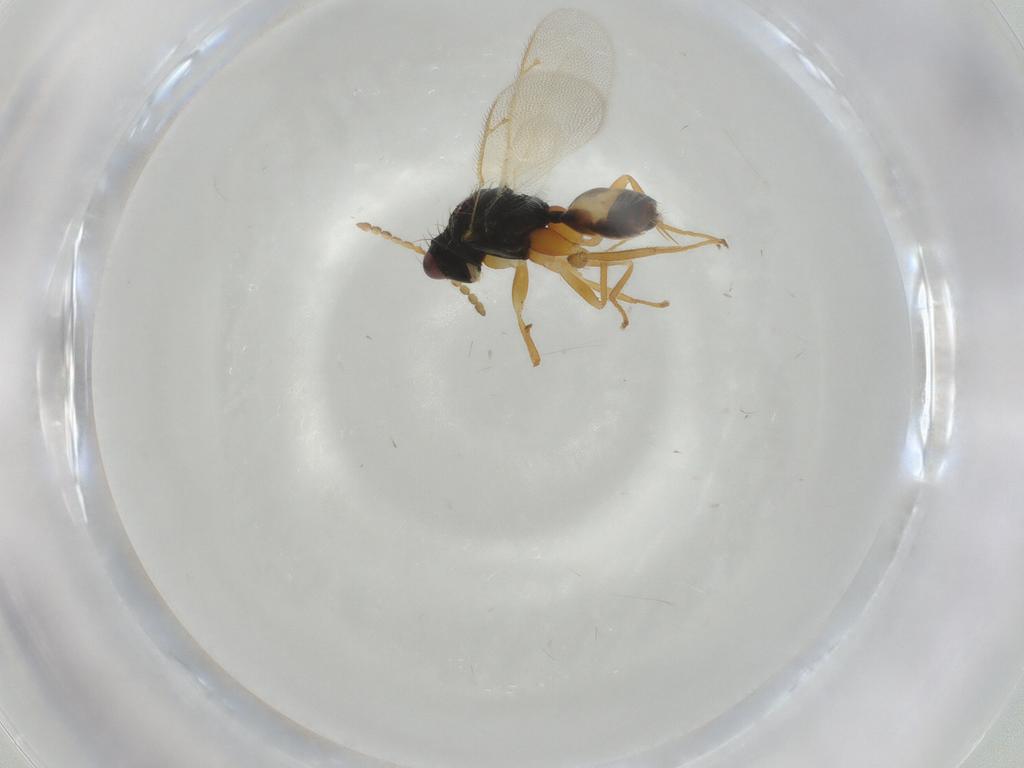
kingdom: Animalia
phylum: Arthropoda
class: Insecta
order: Hymenoptera
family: Eulophidae
